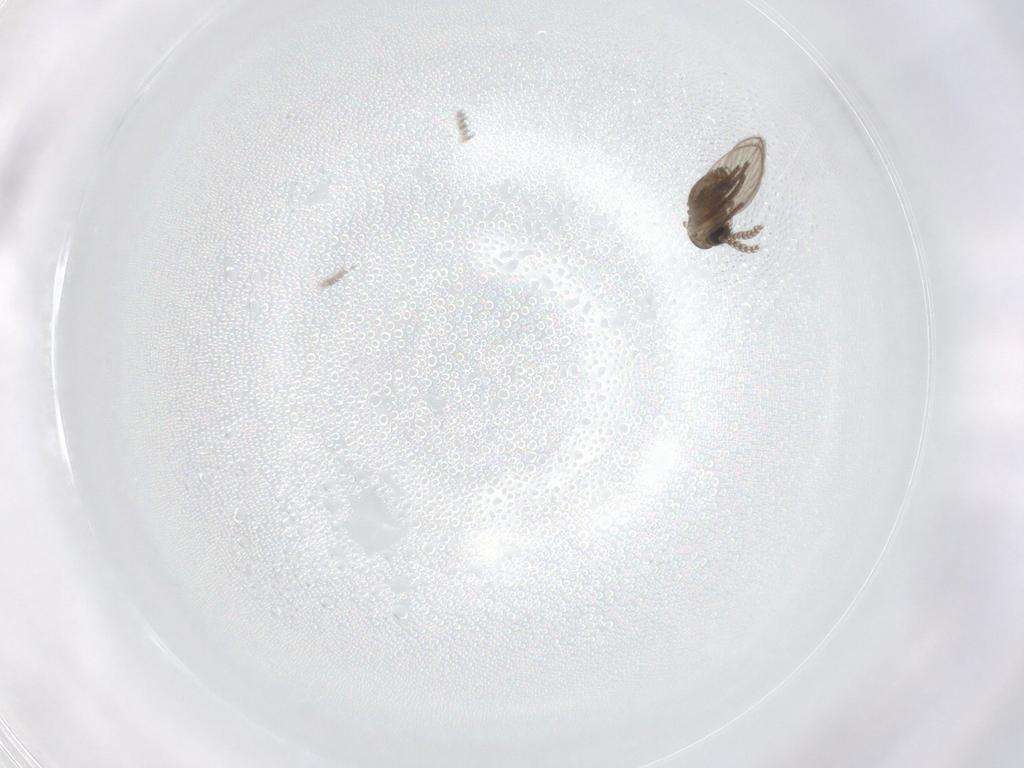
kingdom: Animalia
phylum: Arthropoda
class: Insecta
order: Diptera
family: Psychodidae
